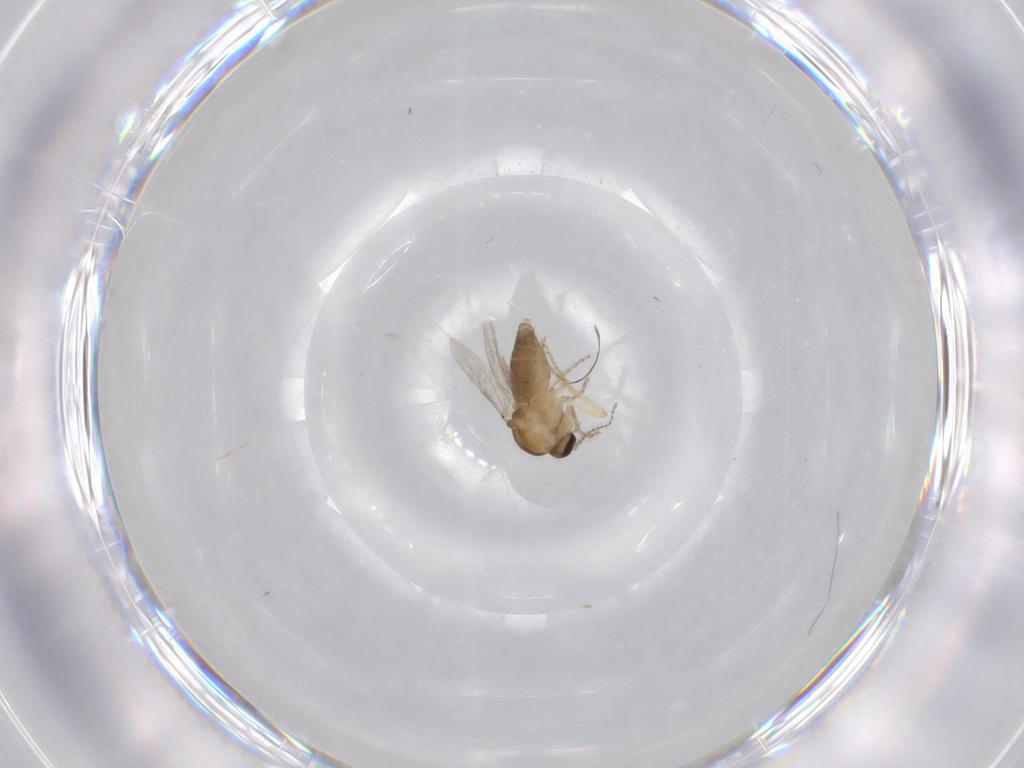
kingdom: Animalia
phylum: Arthropoda
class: Insecta
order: Diptera
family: Ceratopogonidae
